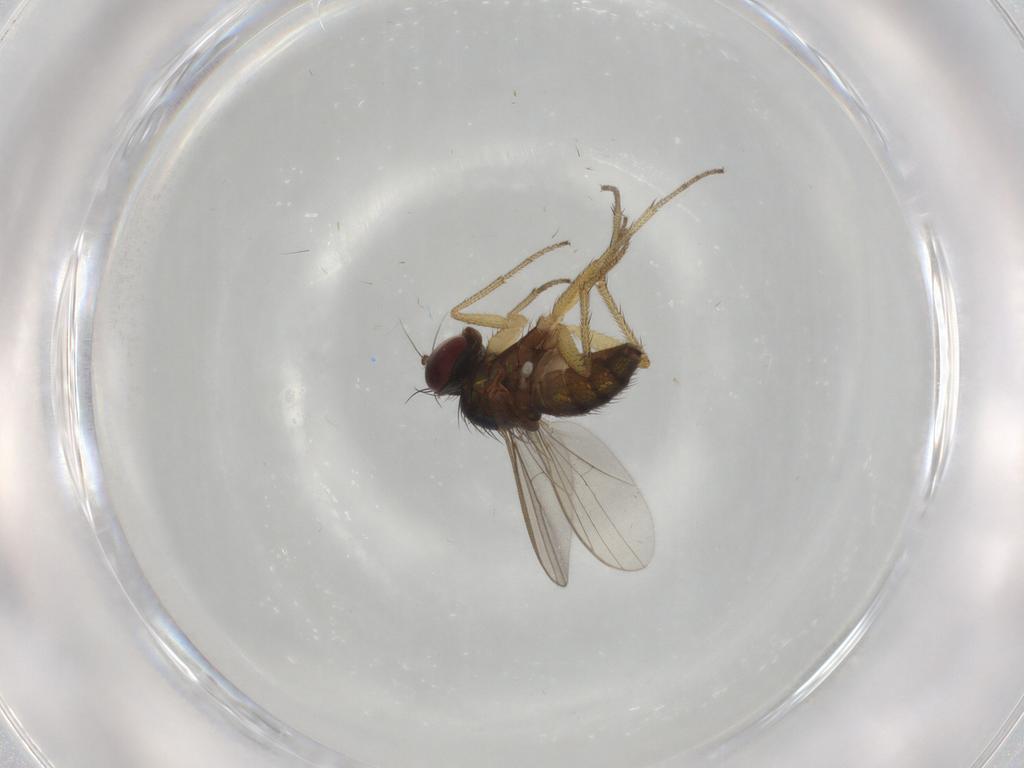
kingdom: Animalia
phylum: Arthropoda
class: Insecta
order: Diptera
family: Dolichopodidae
